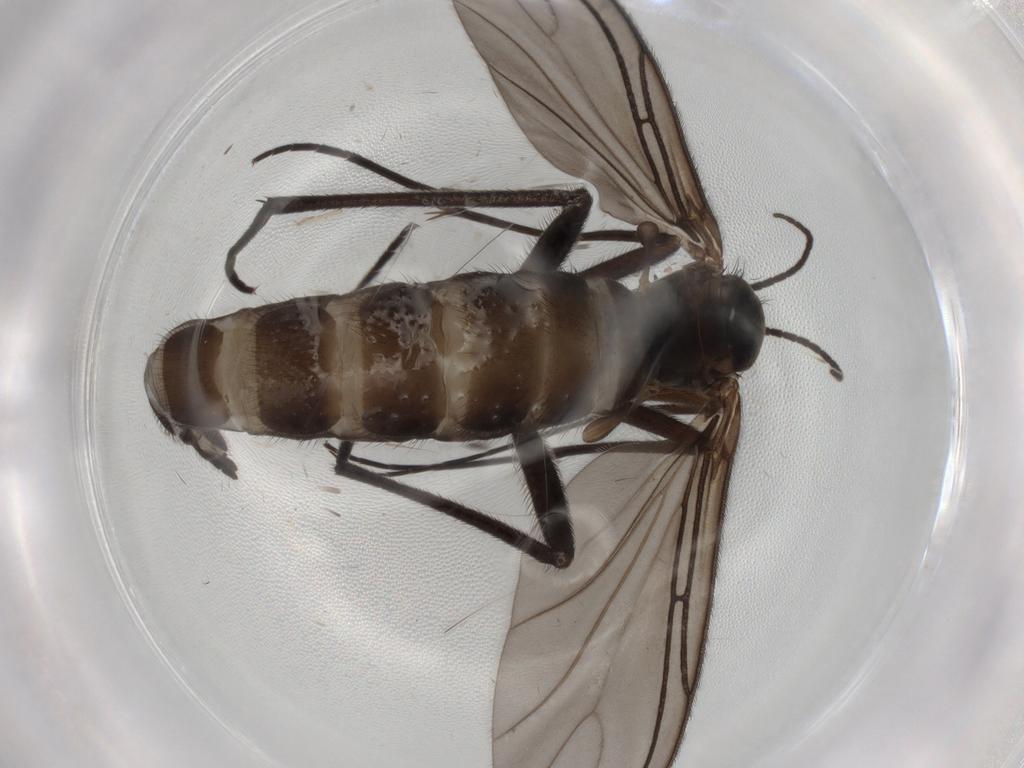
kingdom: Animalia
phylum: Arthropoda
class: Insecta
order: Diptera
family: Sciaridae
